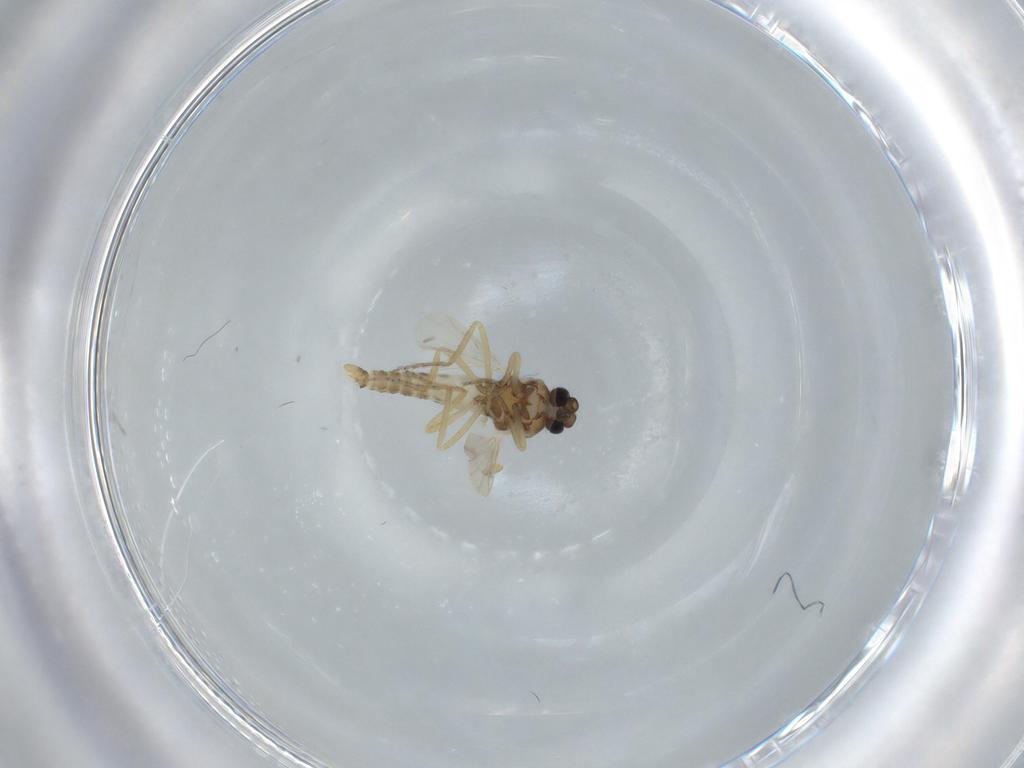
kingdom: Animalia
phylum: Arthropoda
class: Insecta
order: Diptera
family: Ceratopogonidae
